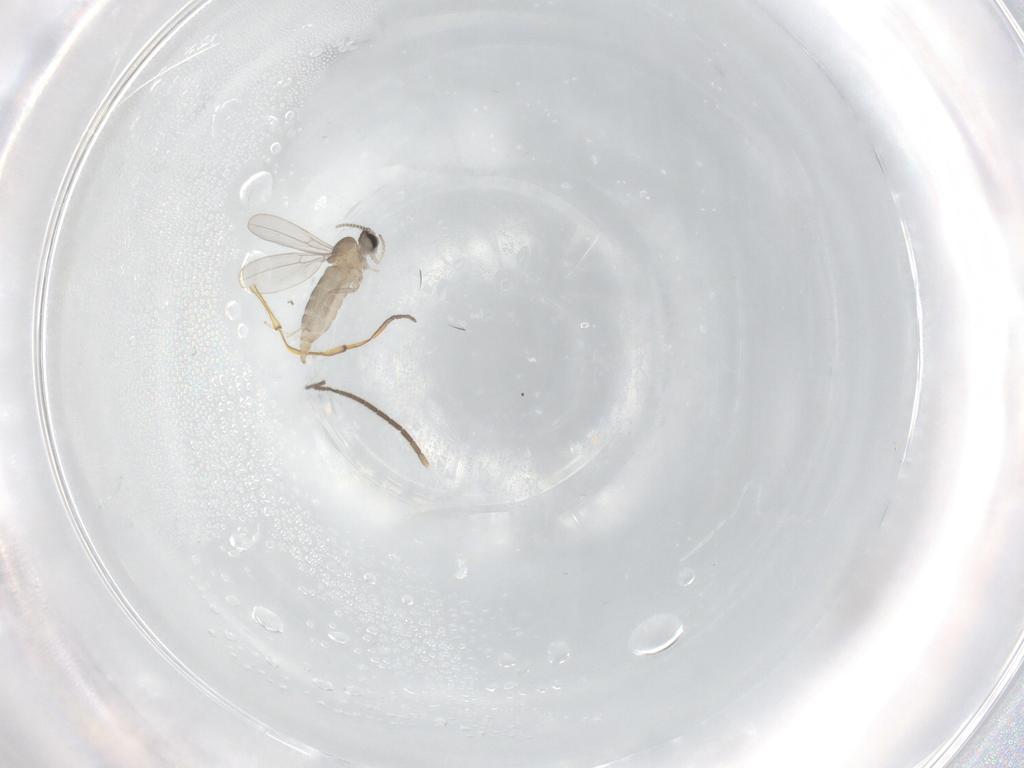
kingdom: Animalia
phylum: Arthropoda
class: Insecta
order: Diptera
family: Cecidomyiidae
